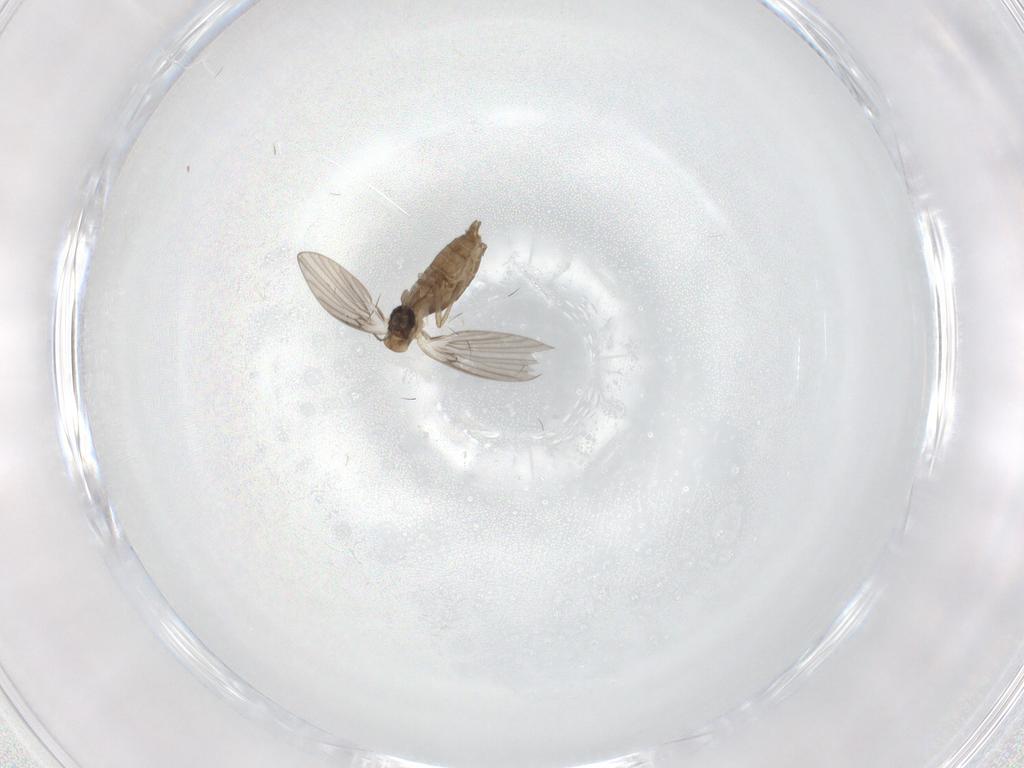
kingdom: Animalia
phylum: Arthropoda
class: Insecta
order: Diptera
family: Psychodidae
